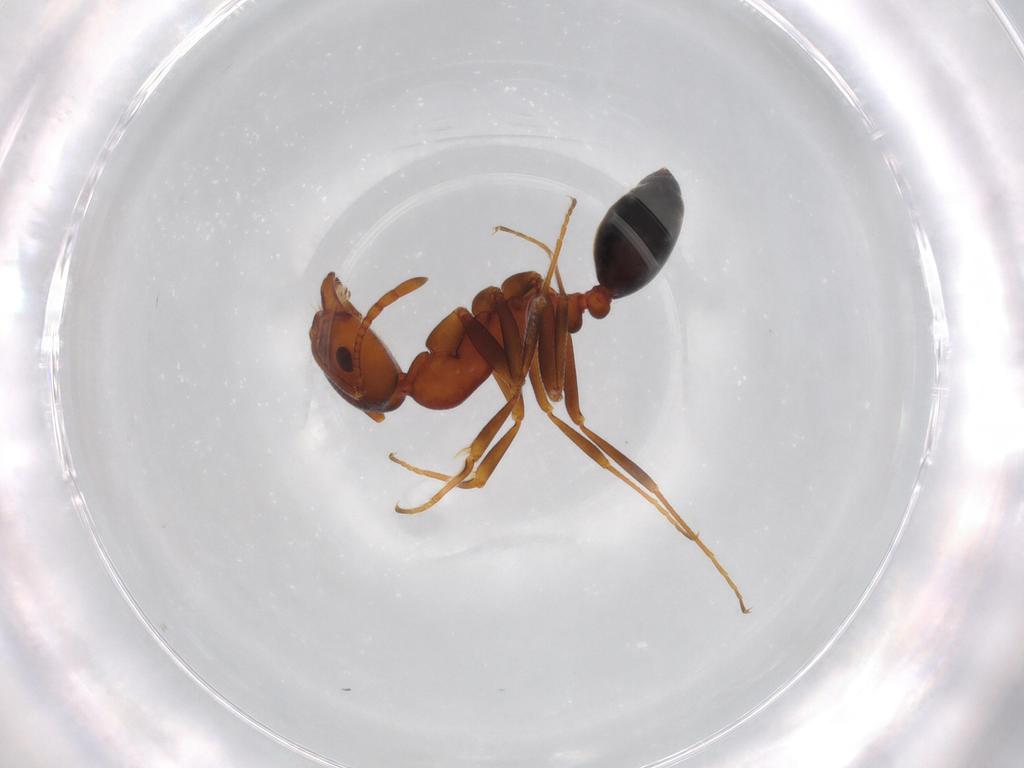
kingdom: Animalia
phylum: Arthropoda
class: Insecta
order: Hymenoptera
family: Formicidae
